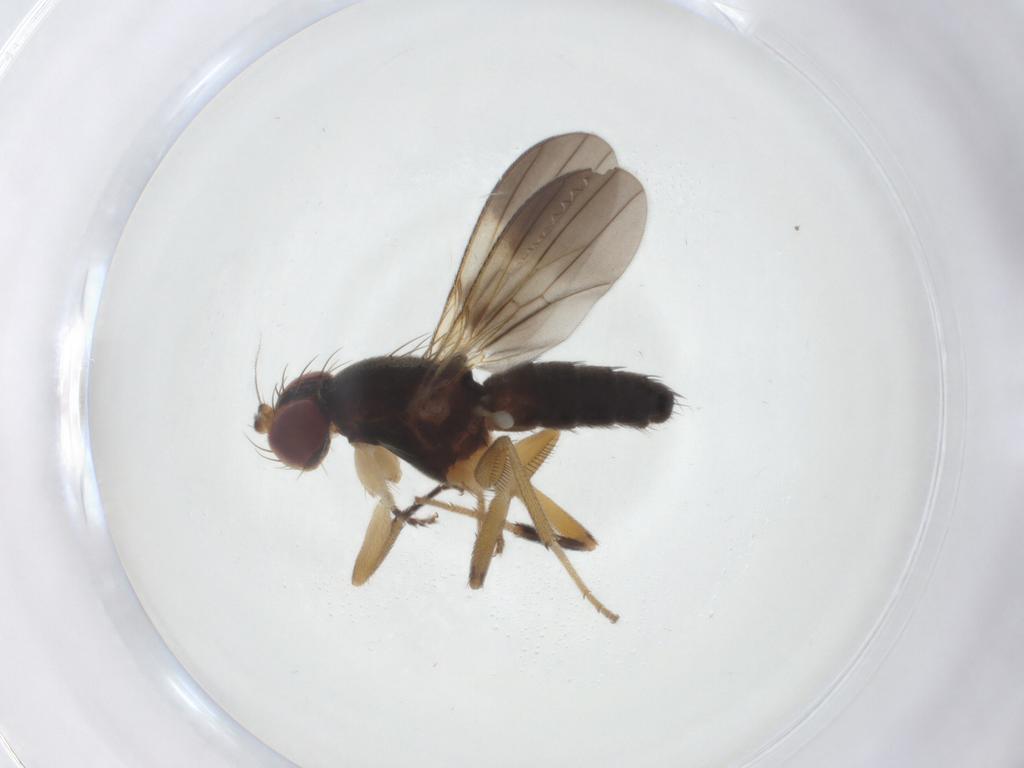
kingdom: Animalia
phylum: Arthropoda
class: Insecta
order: Diptera
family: Clusiidae
